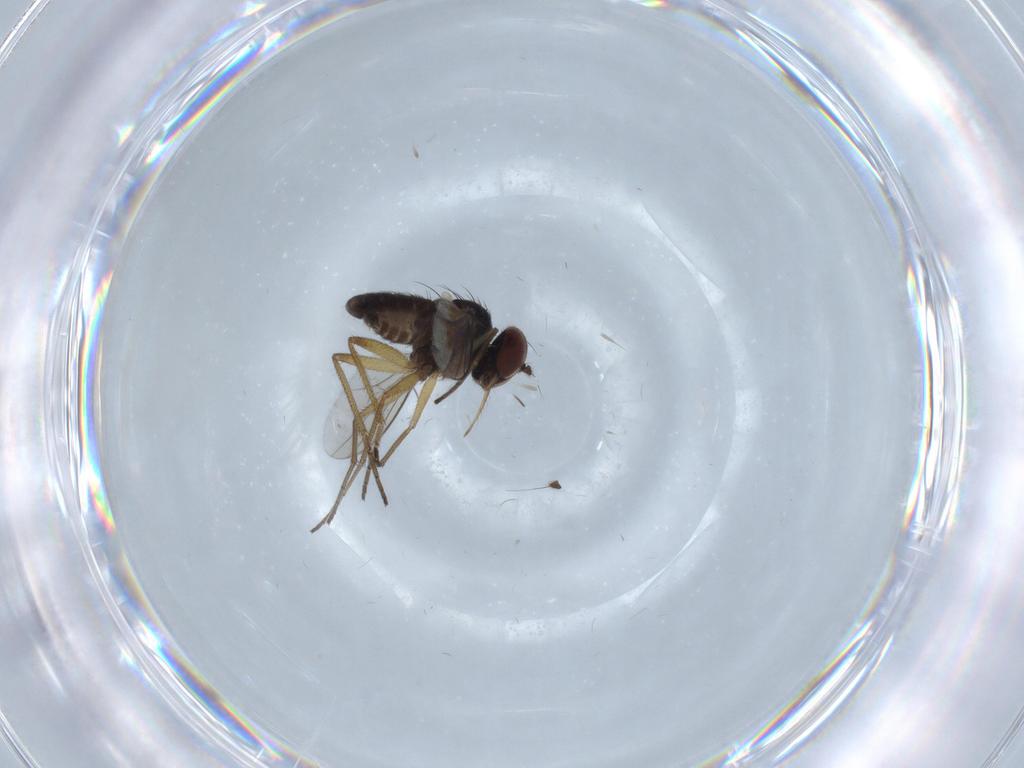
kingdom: Animalia
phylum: Arthropoda
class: Insecta
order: Diptera
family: Dolichopodidae
